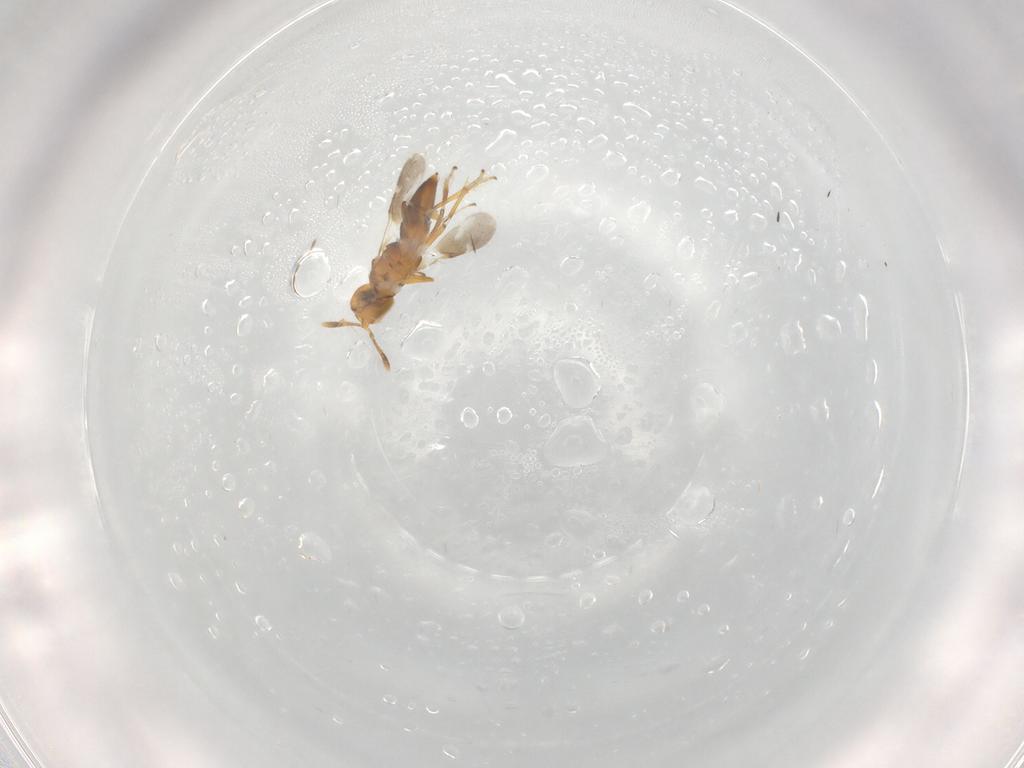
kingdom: Animalia
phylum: Arthropoda
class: Insecta
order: Hymenoptera
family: Encyrtidae
